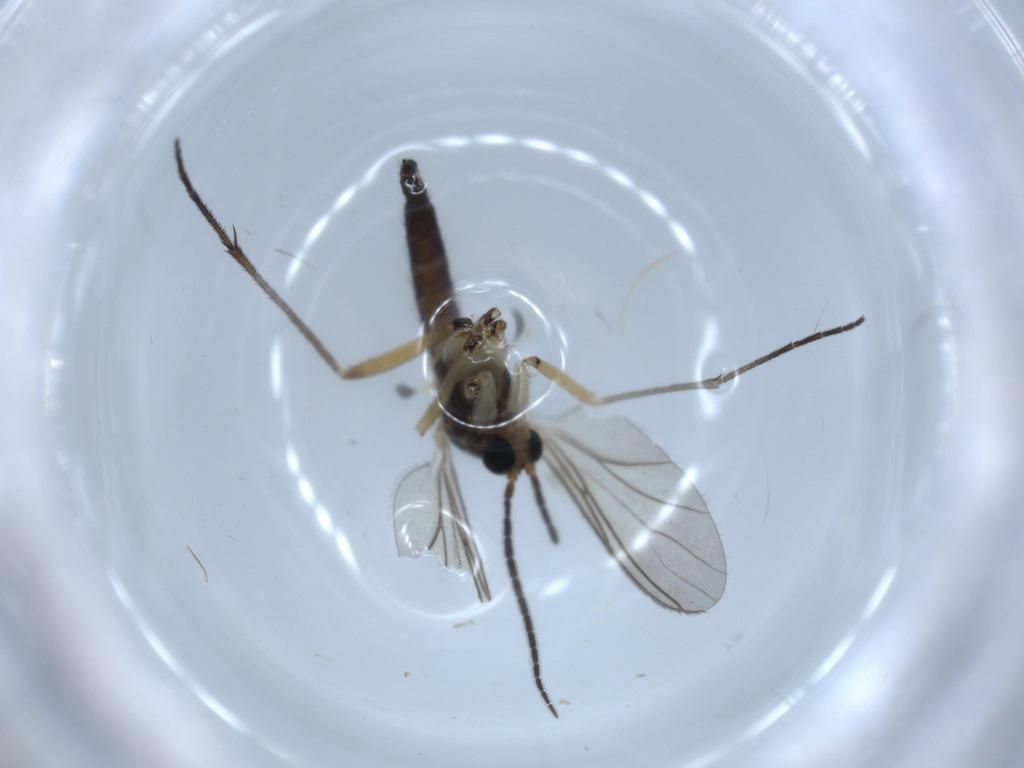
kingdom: Animalia
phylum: Arthropoda
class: Insecta
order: Diptera
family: Sciaridae
